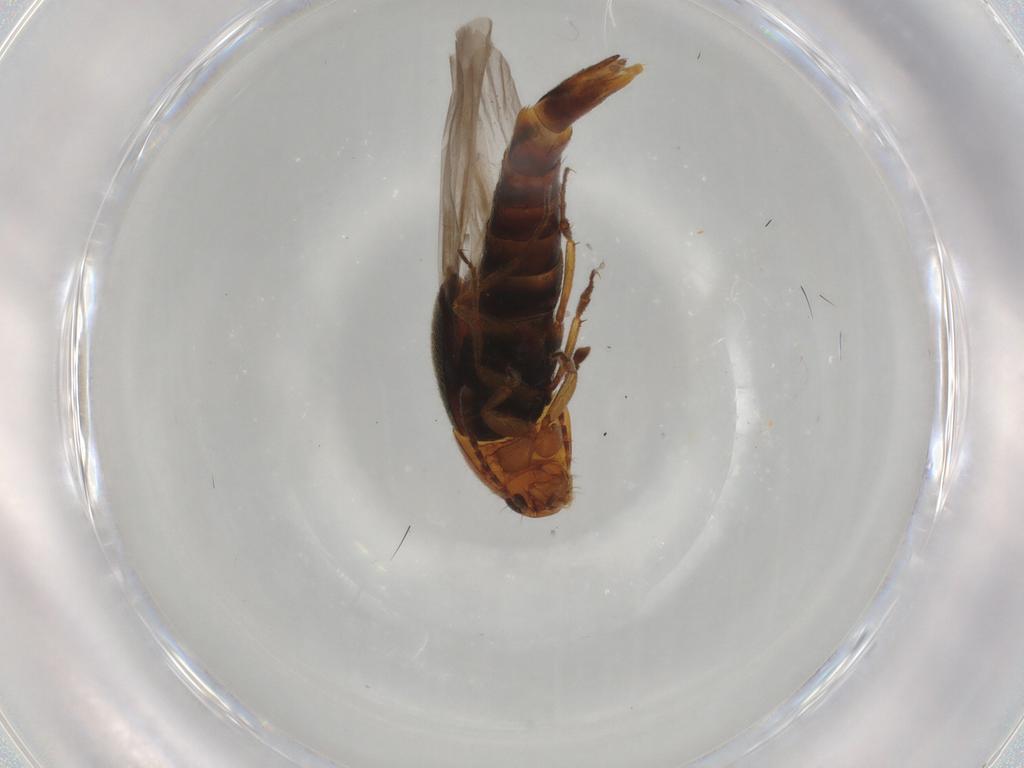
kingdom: Animalia
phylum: Arthropoda
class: Insecta
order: Coleoptera
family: Staphylinidae
